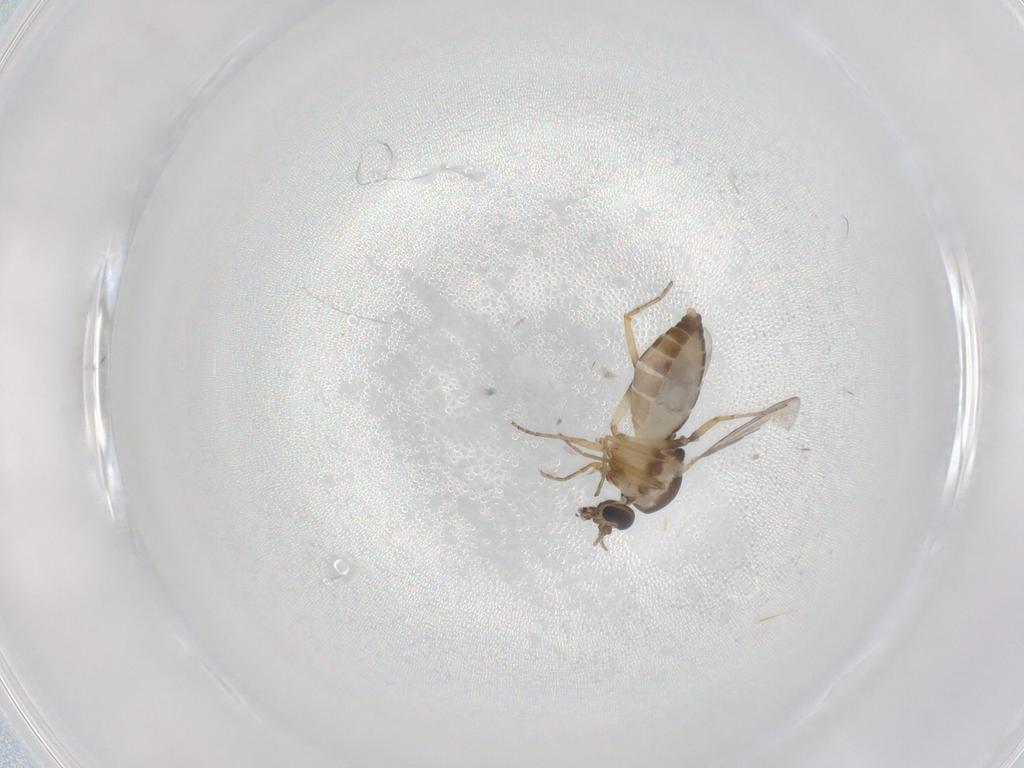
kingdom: Animalia
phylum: Arthropoda
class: Insecta
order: Diptera
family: Ceratopogonidae
